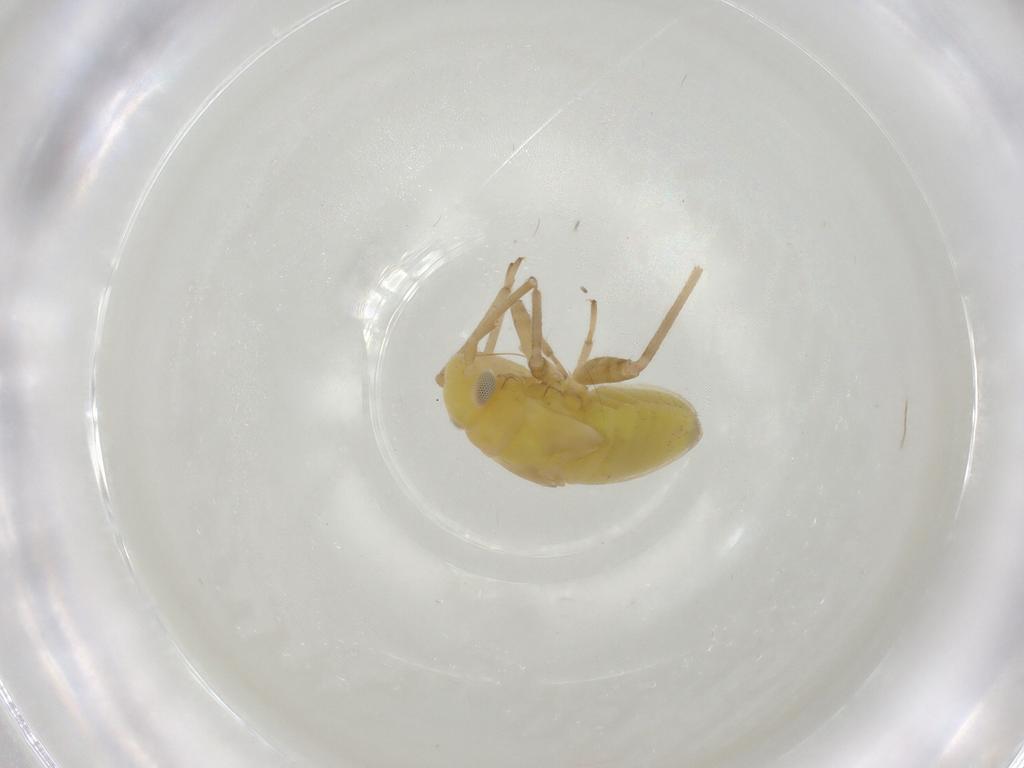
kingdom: Animalia
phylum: Arthropoda
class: Insecta
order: Hemiptera
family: Miridae
